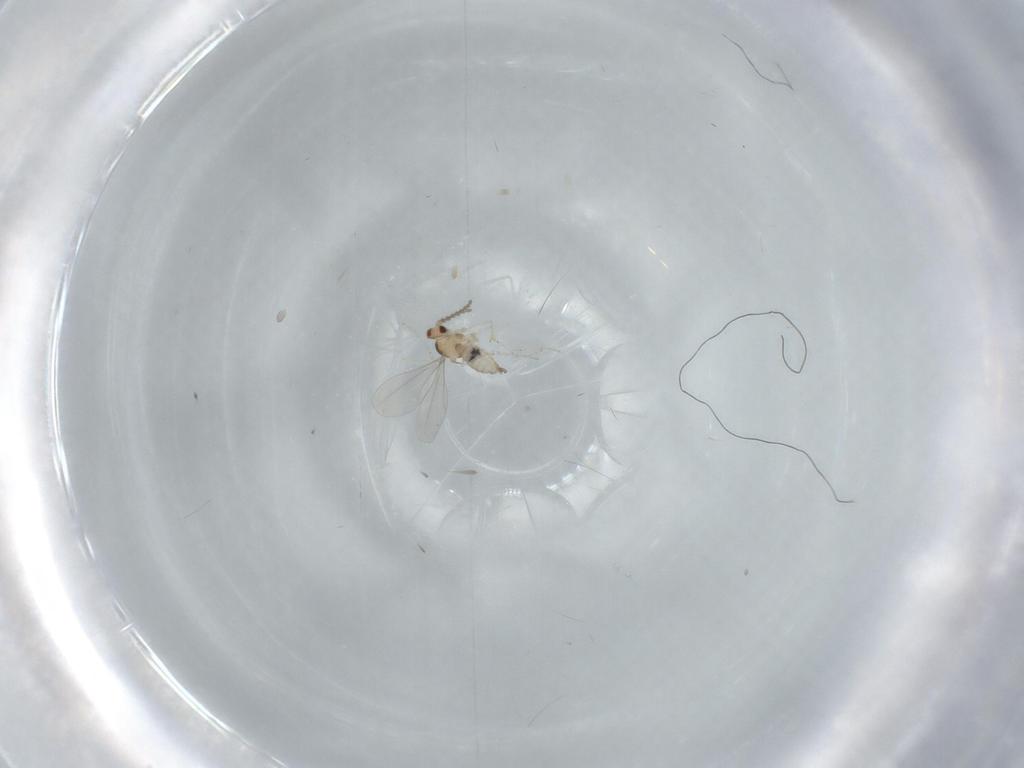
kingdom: Animalia
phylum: Arthropoda
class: Insecta
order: Diptera
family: Cecidomyiidae
